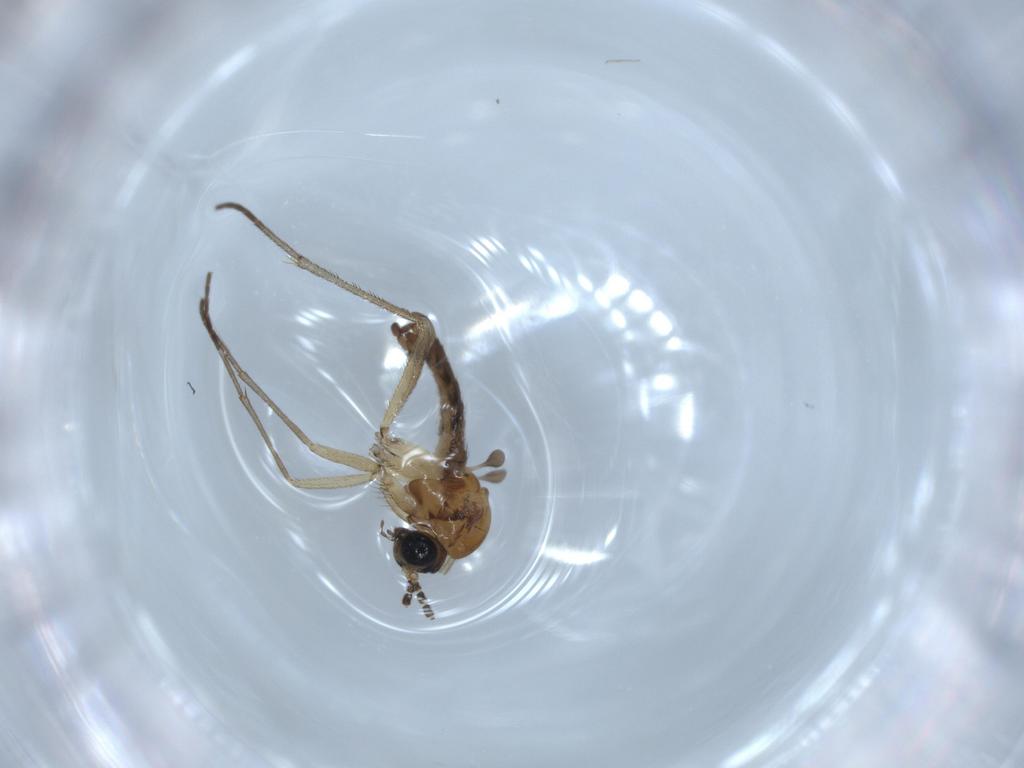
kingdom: Animalia
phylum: Arthropoda
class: Insecta
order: Diptera
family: Sciaridae
